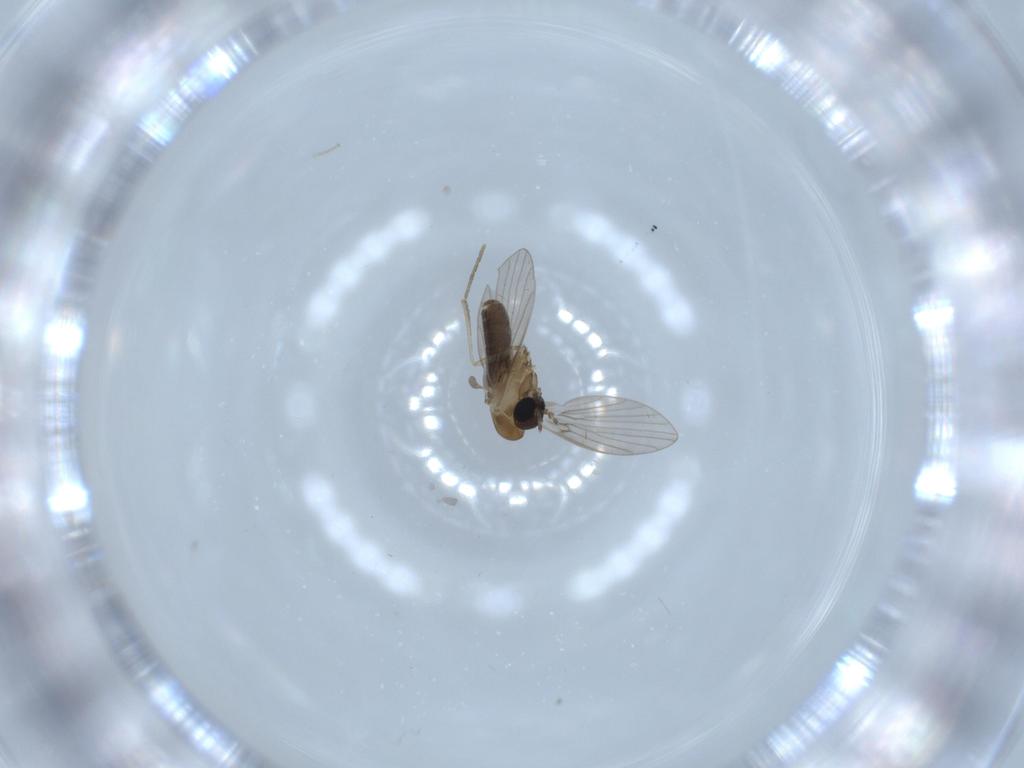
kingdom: Animalia
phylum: Arthropoda
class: Insecta
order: Diptera
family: Psychodidae
